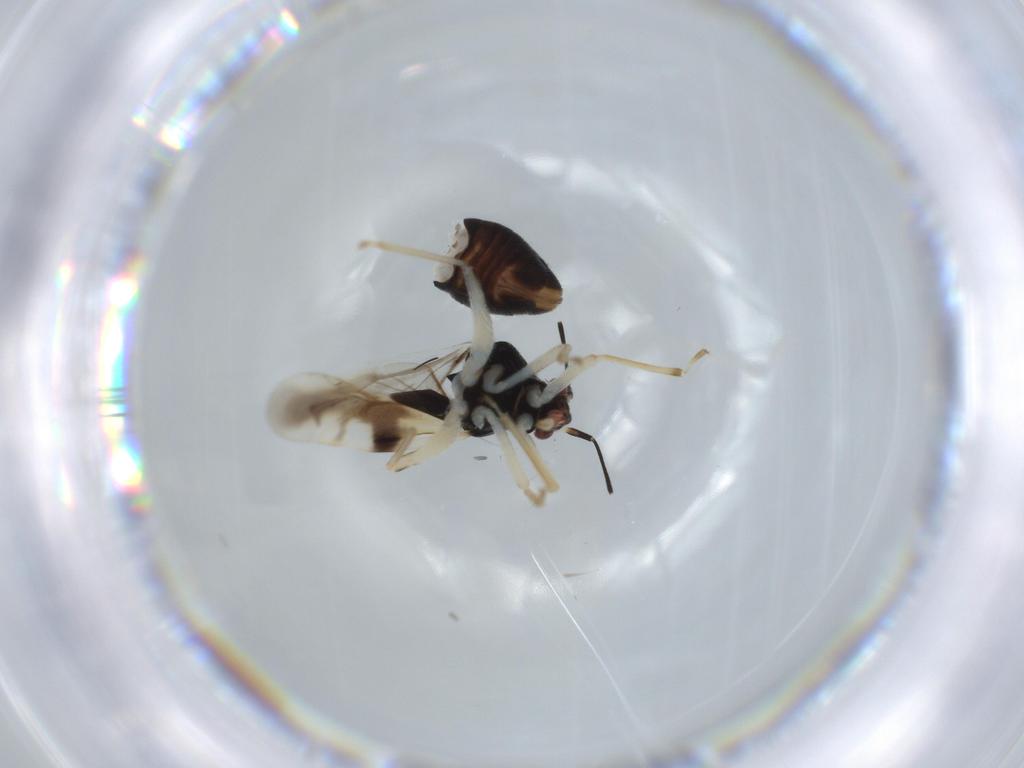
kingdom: Animalia
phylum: Arthropoda
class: Insecta
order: Hemiptera
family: Miridae
